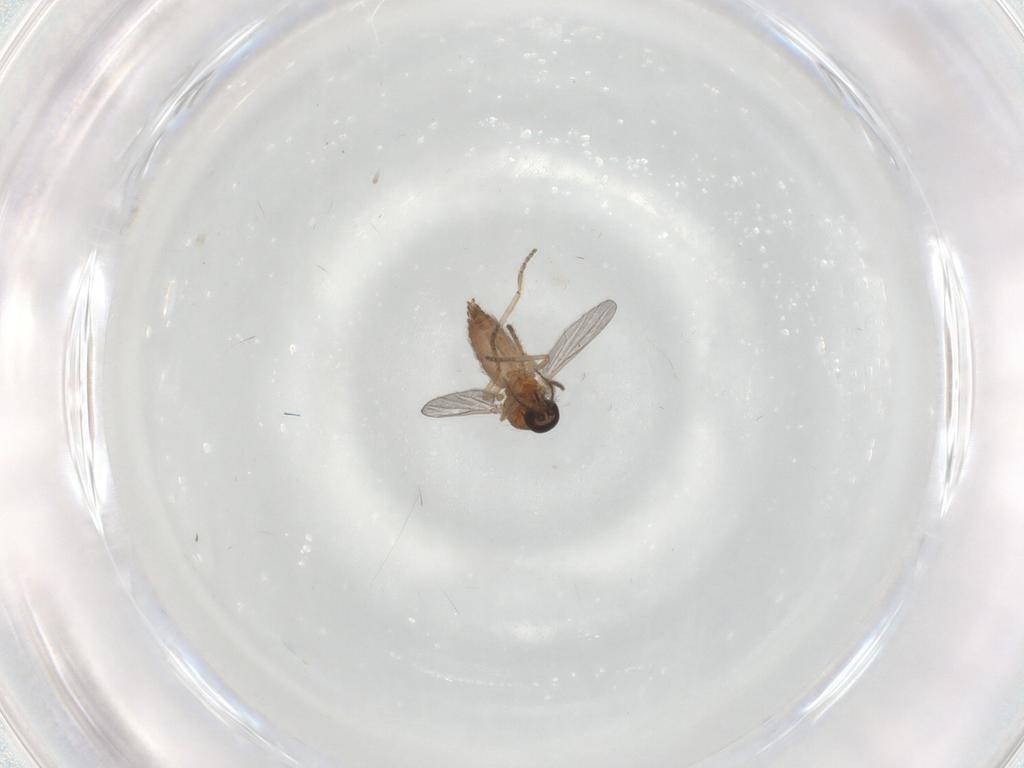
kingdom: Animalia
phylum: Arthropoda
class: Insecta
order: Diptera
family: Ceratopogonidae
